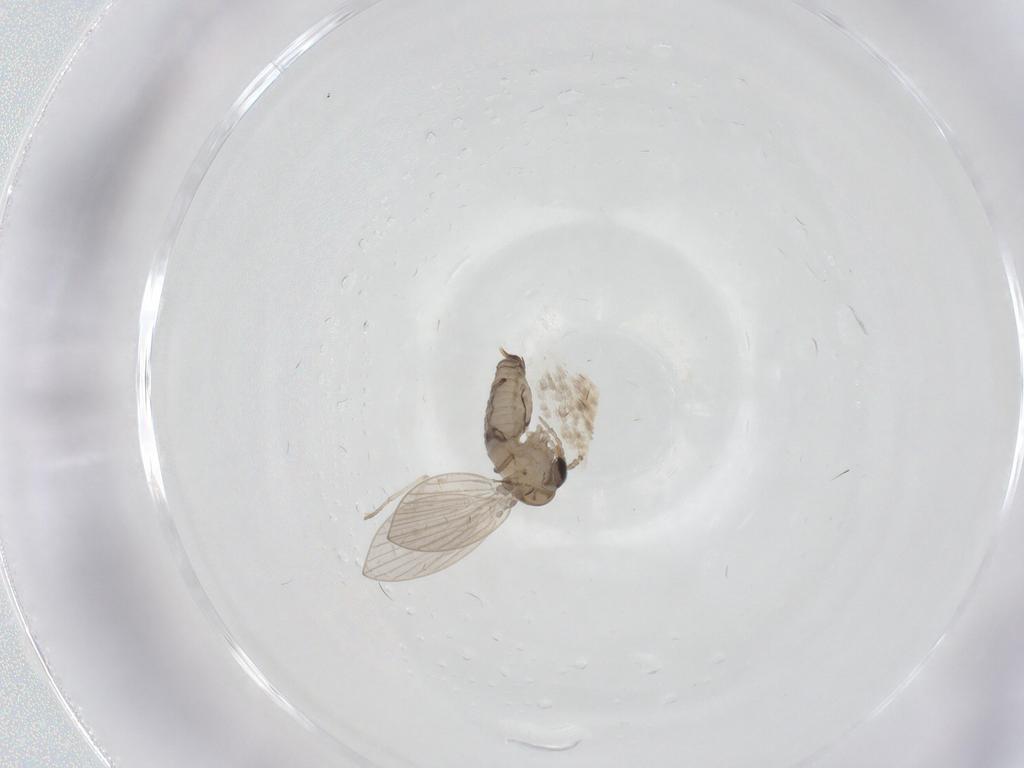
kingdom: Animalia
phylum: Arthropoda
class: Insecta
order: Diptera
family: Psychodidae
